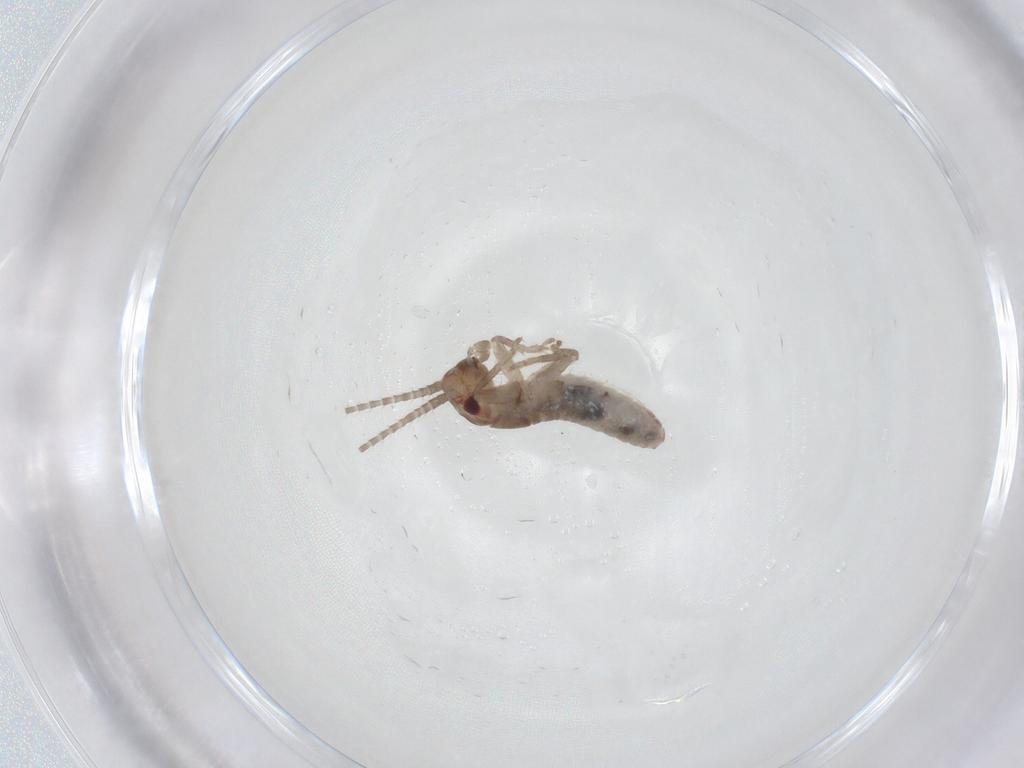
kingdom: Animalia
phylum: Arthropoda
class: Insecta
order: Orthoptera
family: Mogoplistidae
